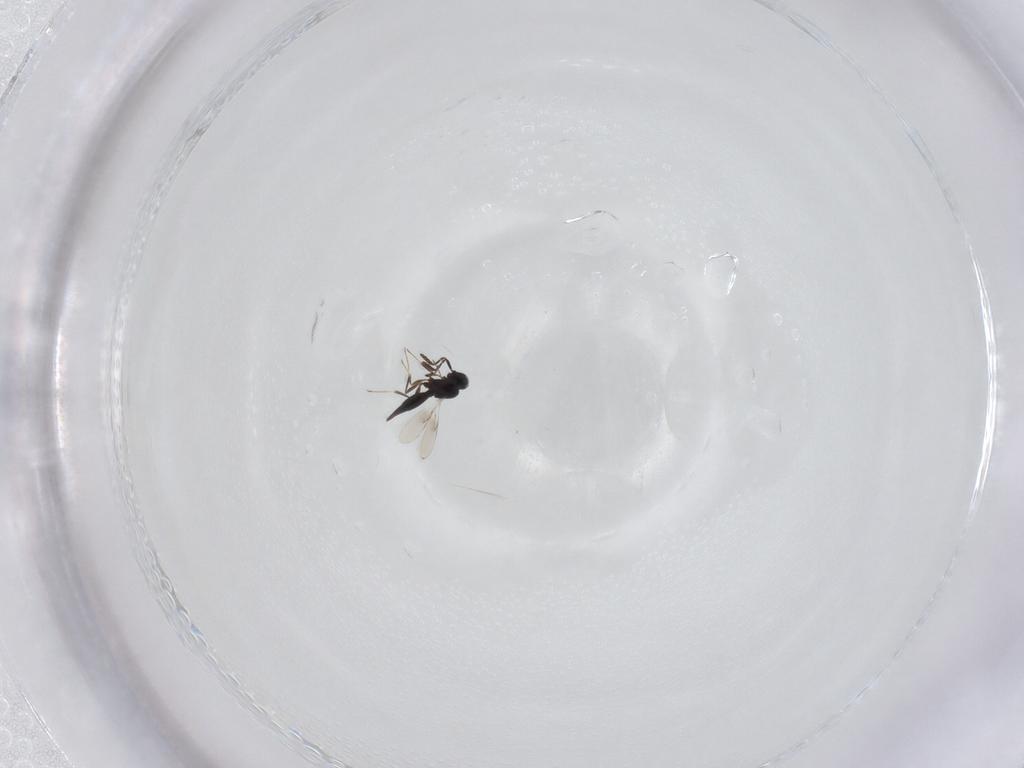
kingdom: Animalia
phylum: Arthropoda
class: Insecta
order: Hymenoptera
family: Scelionidae
